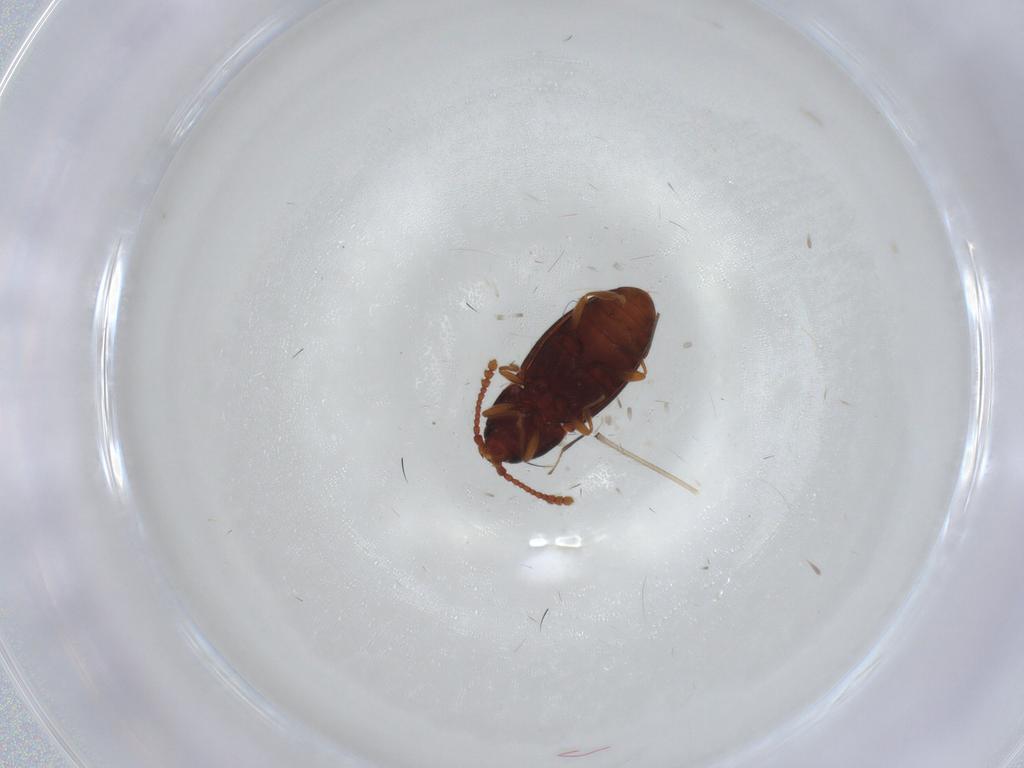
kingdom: Animalia
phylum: Arthropoda
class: Insecta
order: Coleoptera
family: Cryptophagidae
